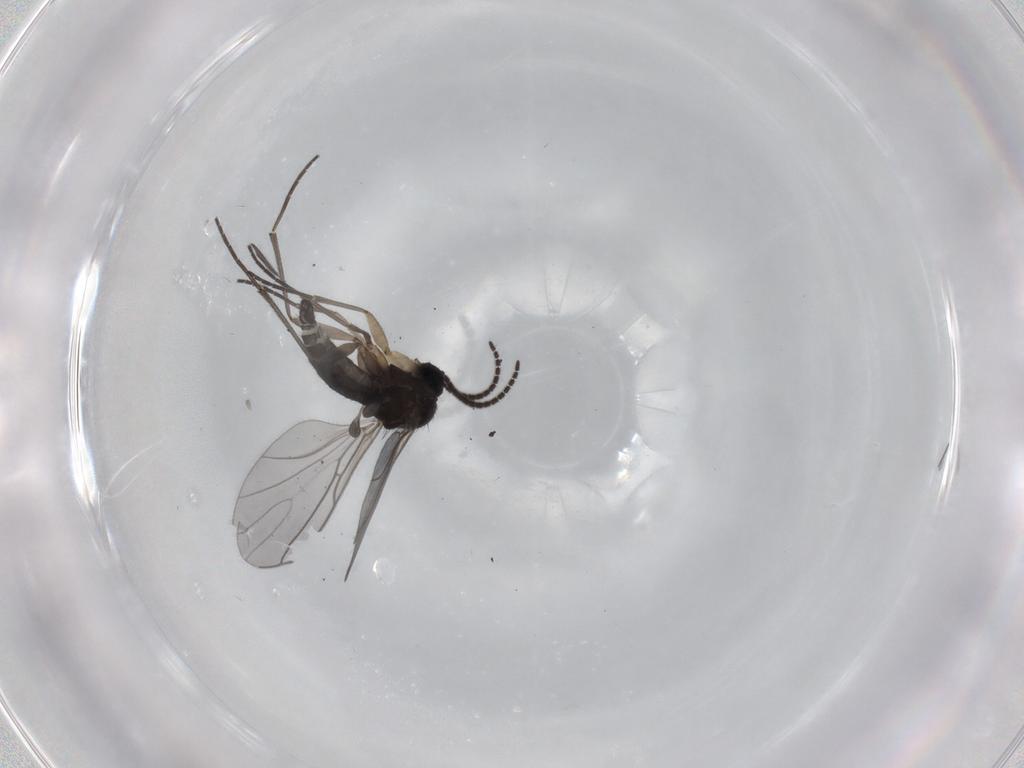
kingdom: Animalia
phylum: Arthropoda
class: Insecta
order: Diptera
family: Sciaridae
